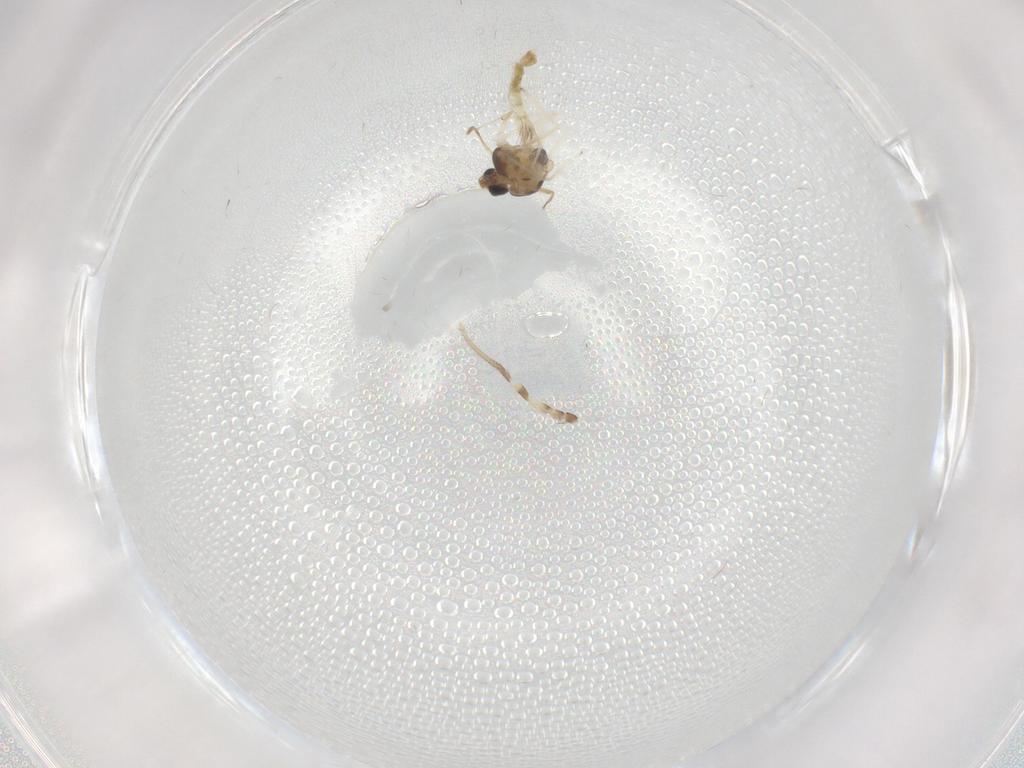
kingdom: Animalia
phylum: Arthropoda
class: Insecta
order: Diptera
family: Chironomidae
